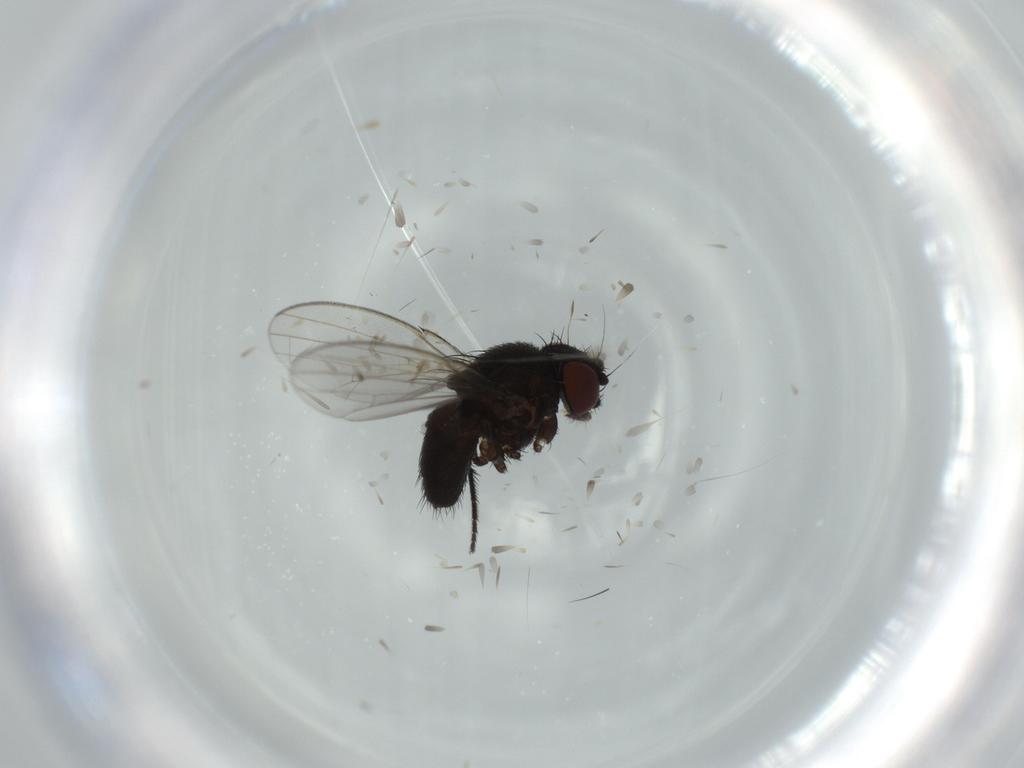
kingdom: Animalia
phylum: Arthropoda
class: Insecta
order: Diptera
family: Milichiidae
